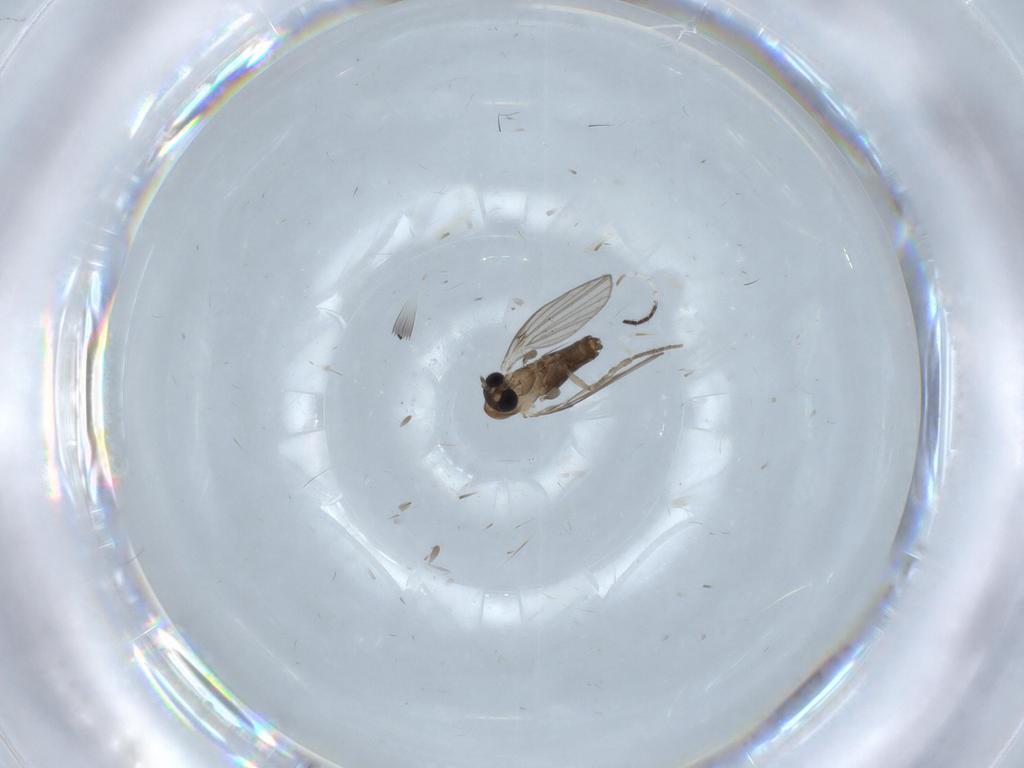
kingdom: Animalia
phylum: Arthropoda
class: Insecta
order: Diptera
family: Psychodidae
